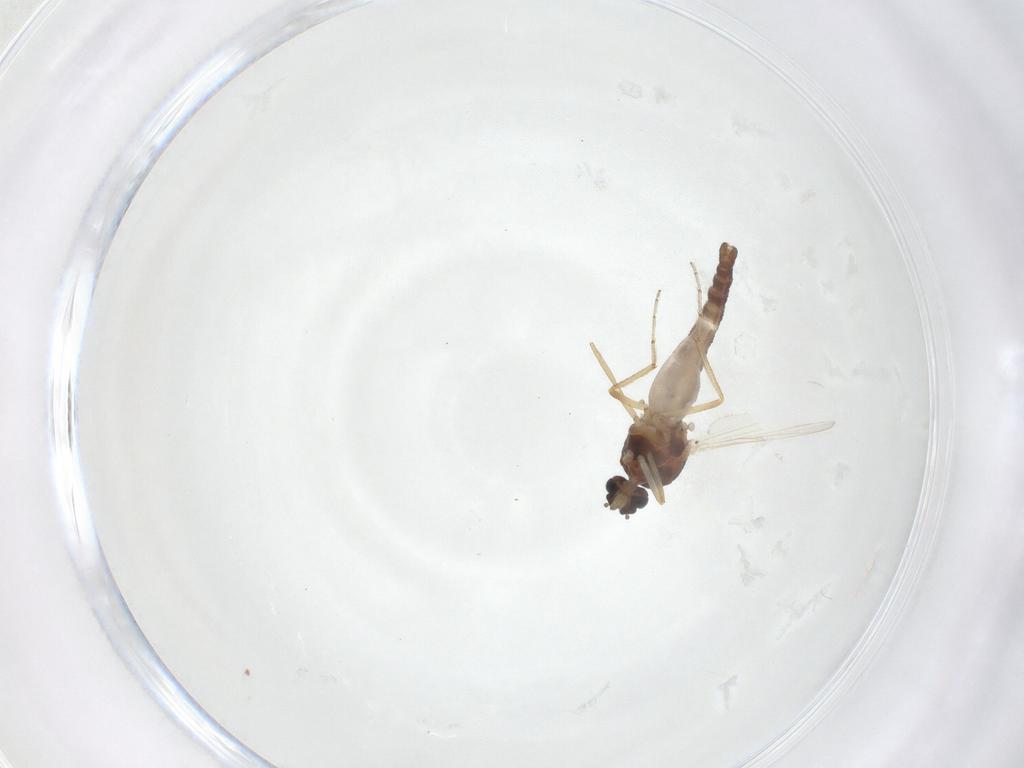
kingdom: Animalia
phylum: Arthropoda
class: Insecta
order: Diptera
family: Ceratopogonidae
